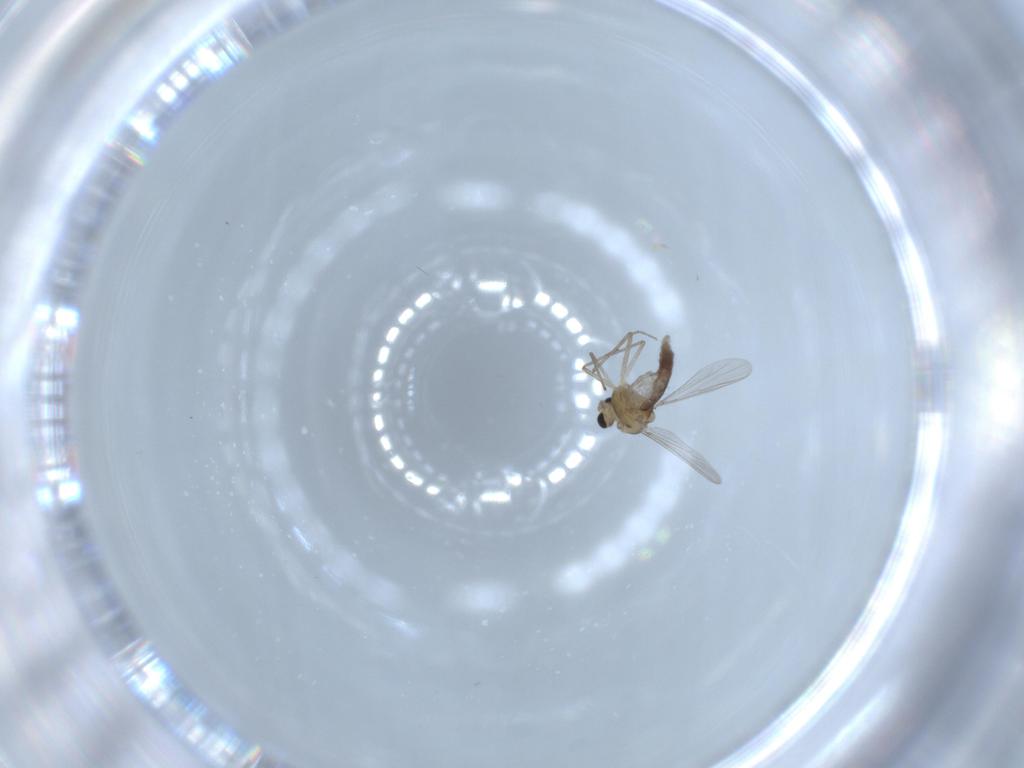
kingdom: Animalia
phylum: Arthropoda
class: Insecta
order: Diptera
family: Chironomidae
